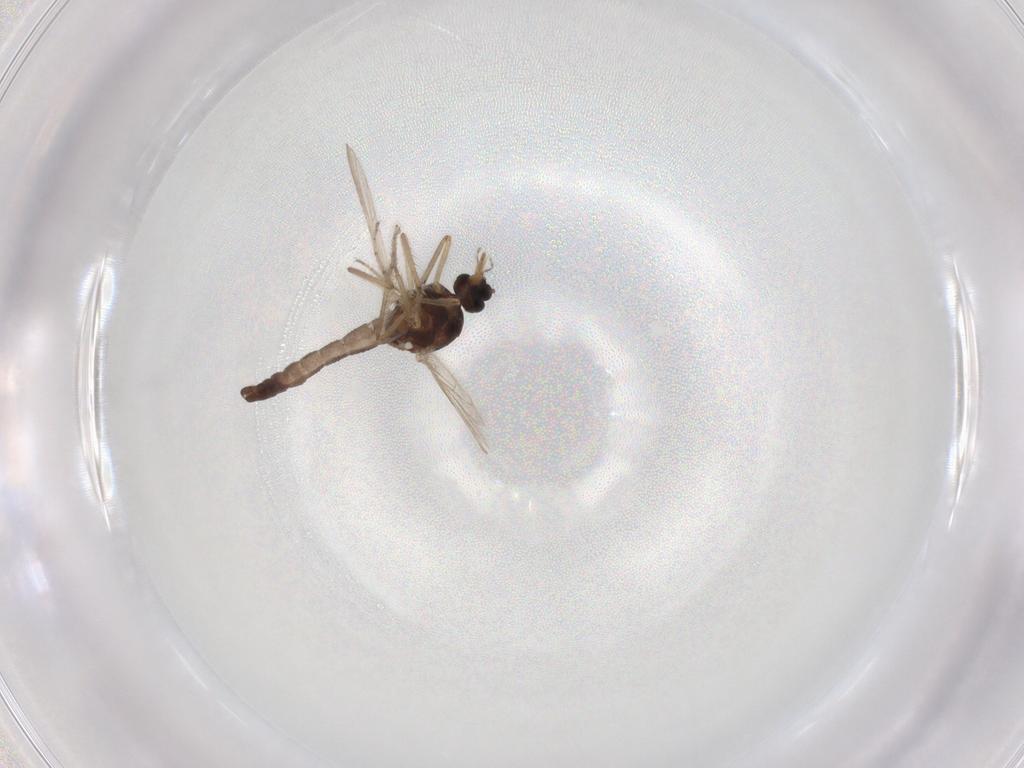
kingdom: Animalia
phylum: Arthropoda
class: Insecta
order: Diptera
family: Ceratopogonidae
